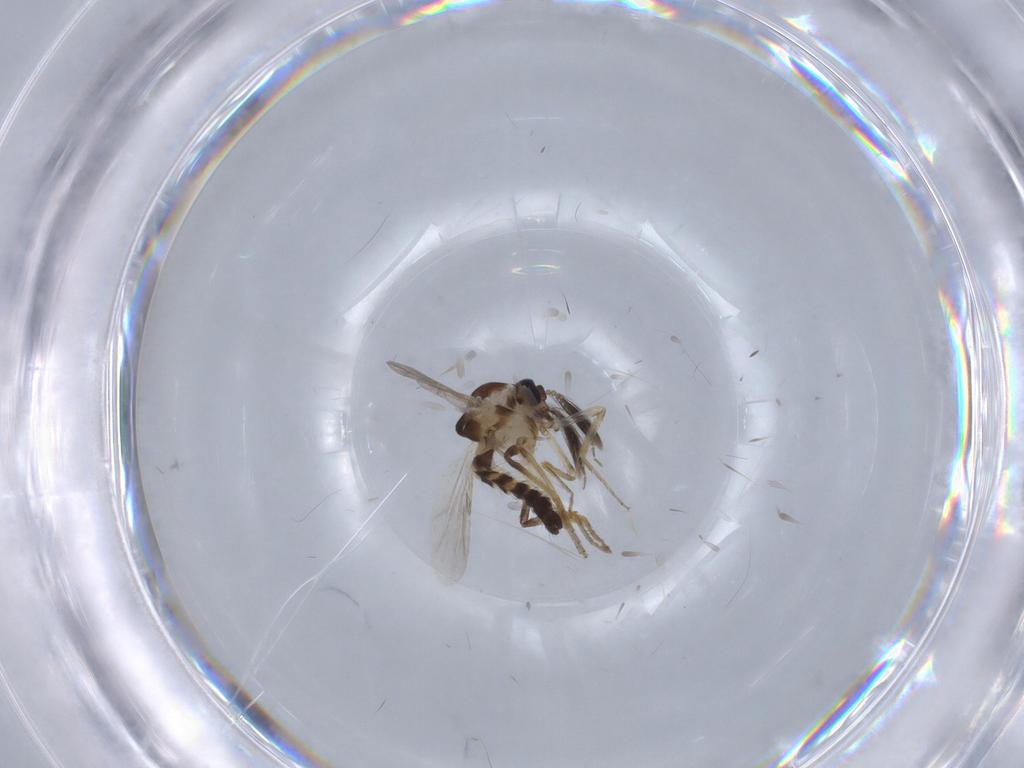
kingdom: Animalia
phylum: Arthropoda
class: Insecta
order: Diptera
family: Ceratopogonidae
